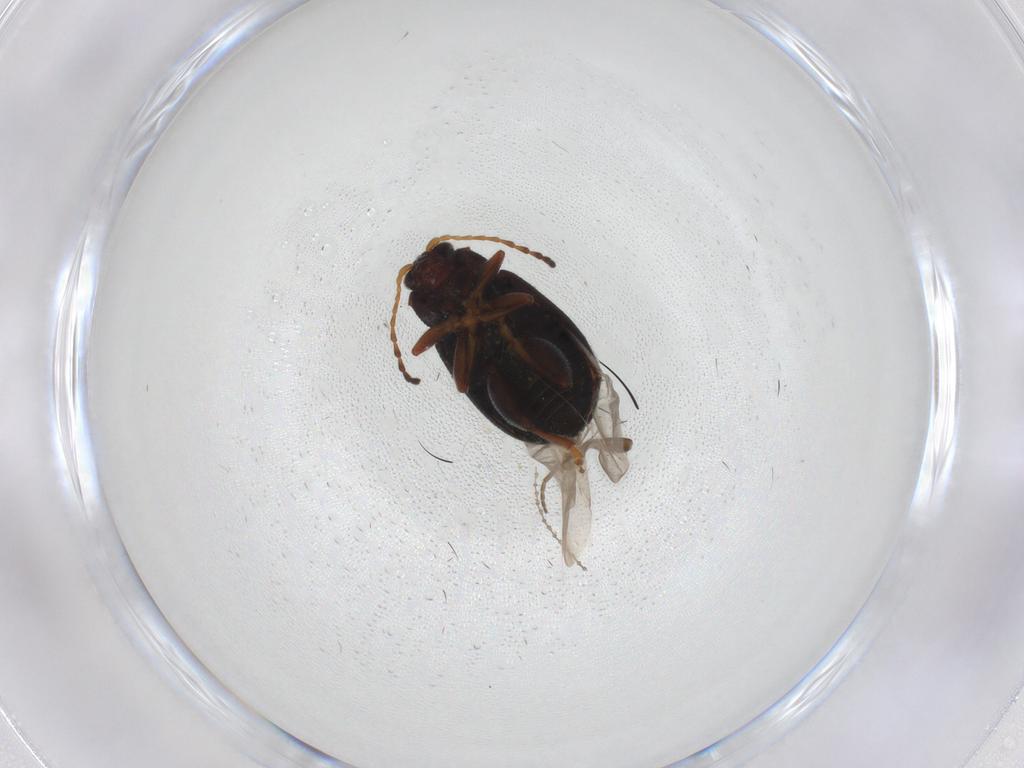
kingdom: Animalia
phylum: Arthropoda
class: Insecta
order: Coleoptera
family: Chrysomelidae
